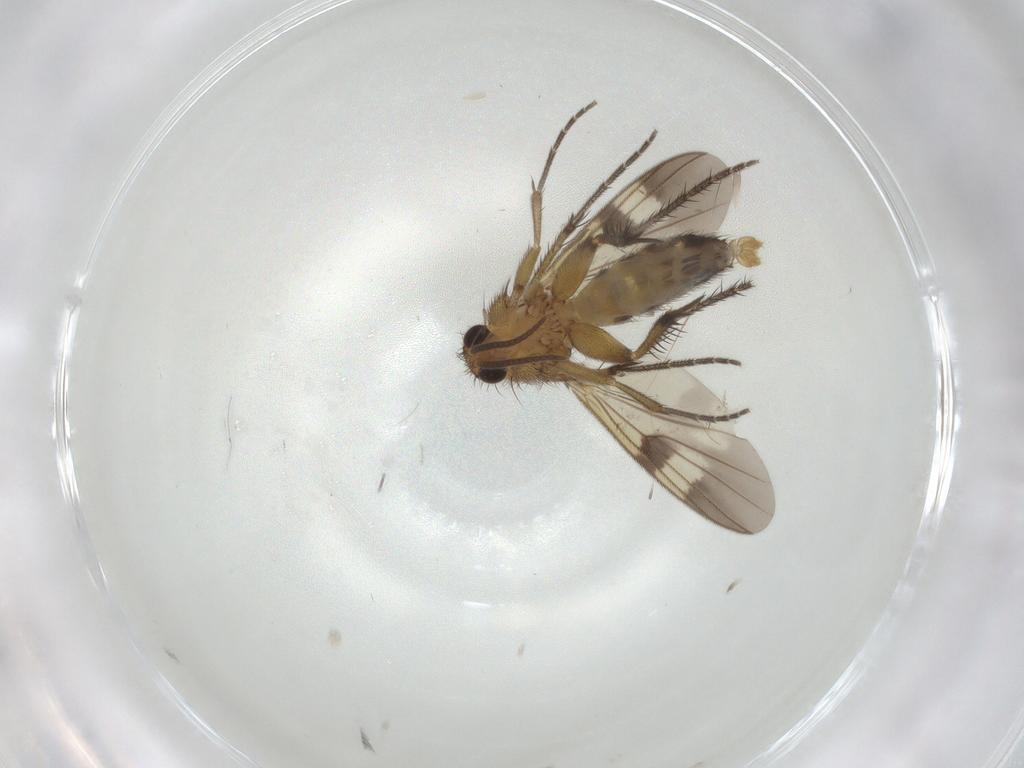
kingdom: Animalia
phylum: Arthropoda
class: Insecta
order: Diptera
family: Mycetophilidae
